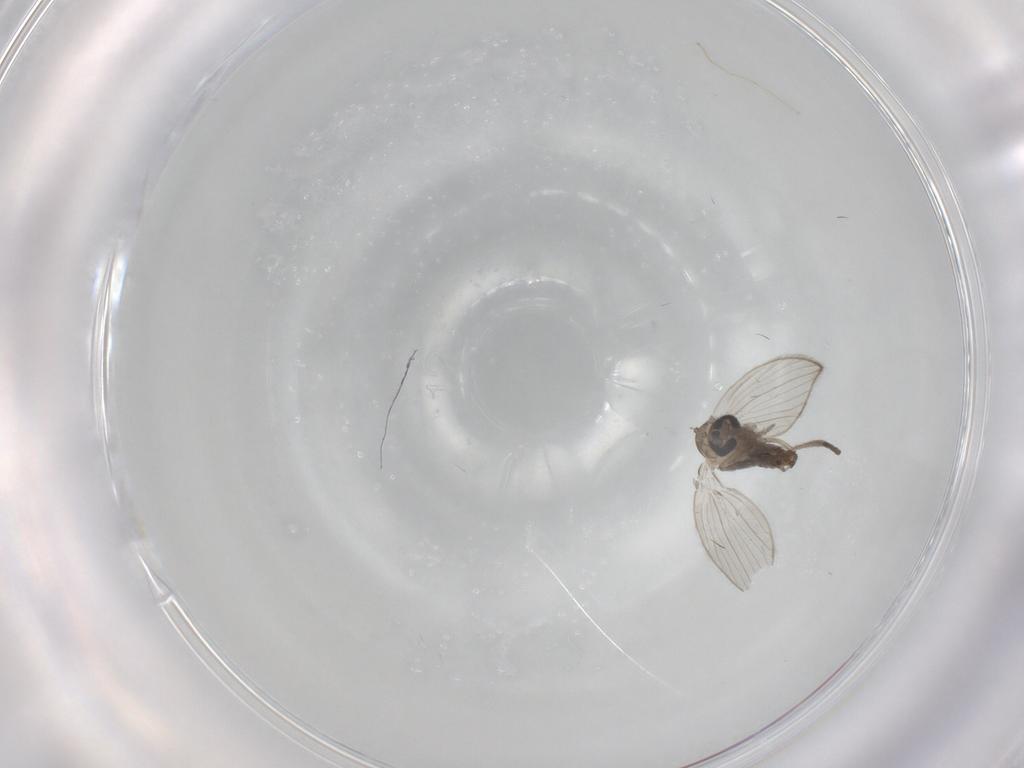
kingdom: Animalia
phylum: Arthropoda
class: Insecta
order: Diptera
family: Psychodidae
